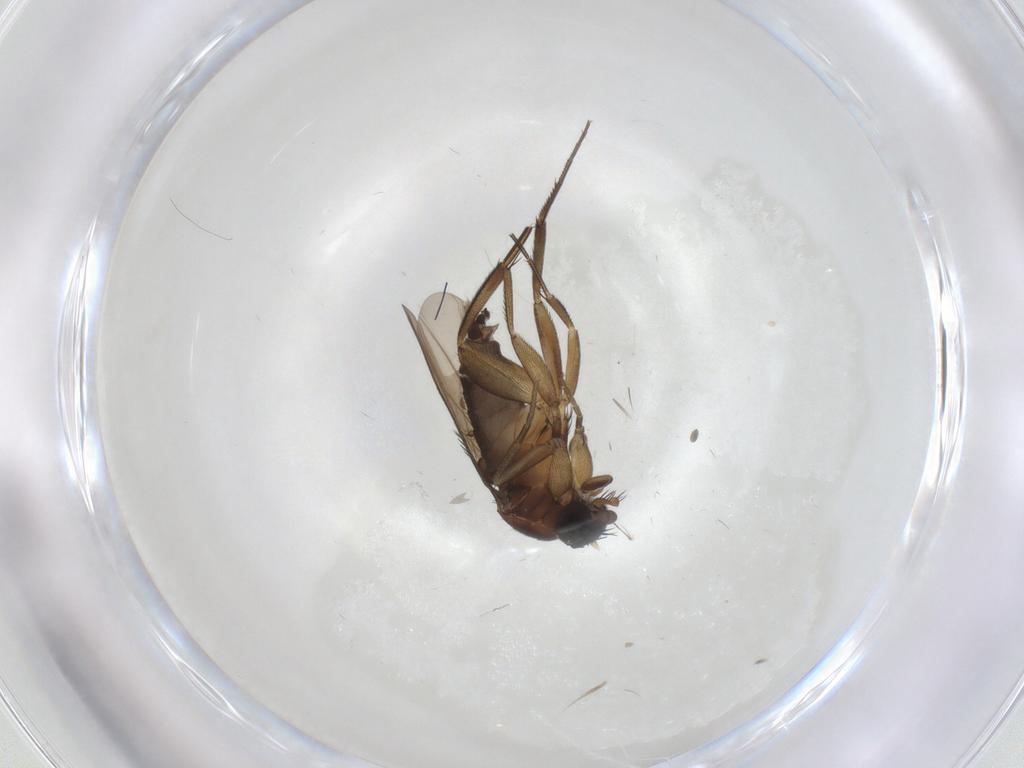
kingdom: Animalia
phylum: Arthropoda
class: Insecta
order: Diptera
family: Phoridae
